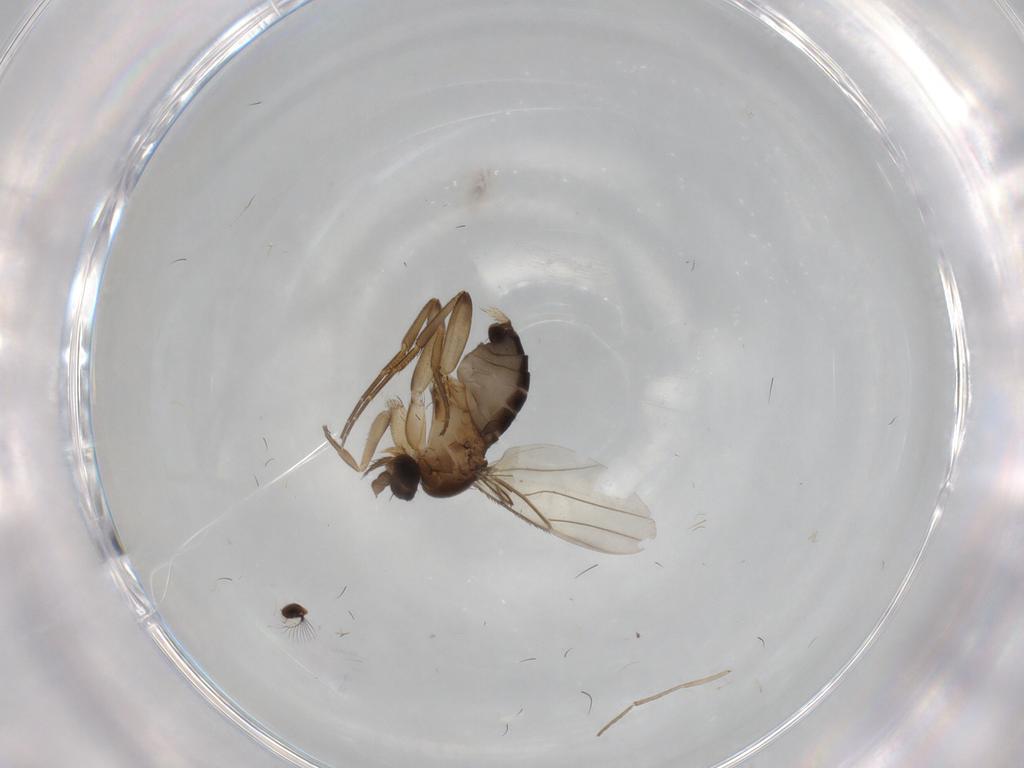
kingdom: Animalia
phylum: Arthropoda
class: Insecta
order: Diptera
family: Ephydridae
